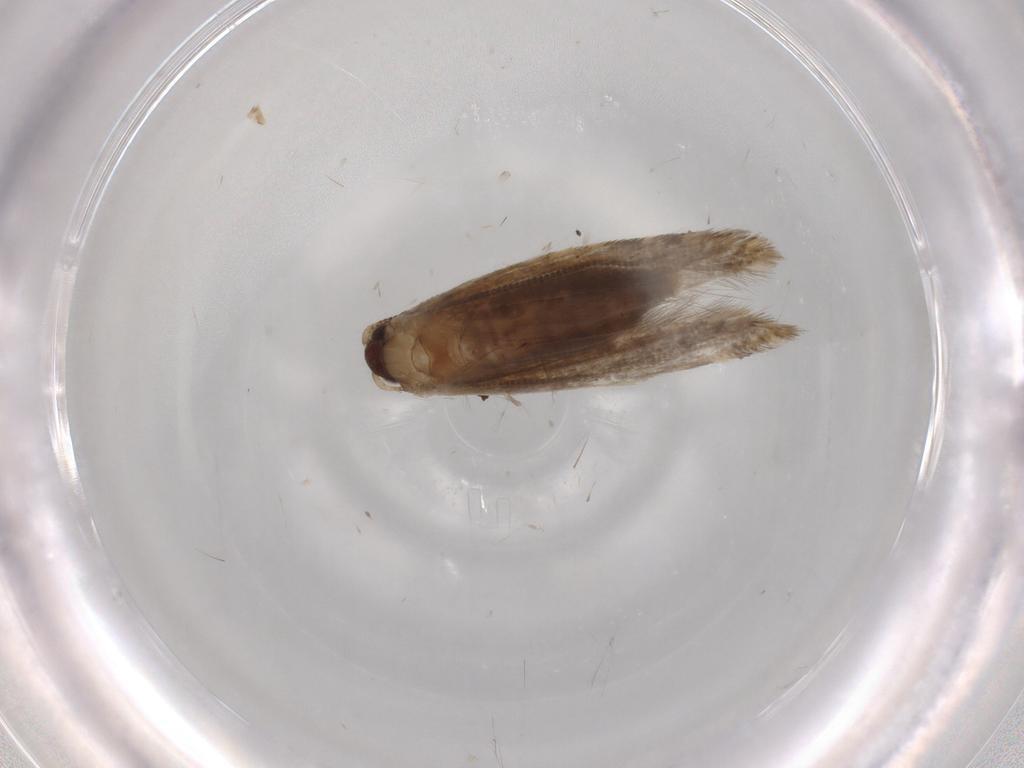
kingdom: Animalia
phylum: Arthropoda
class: Insecta
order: Lepidoptera
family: Erebidae
